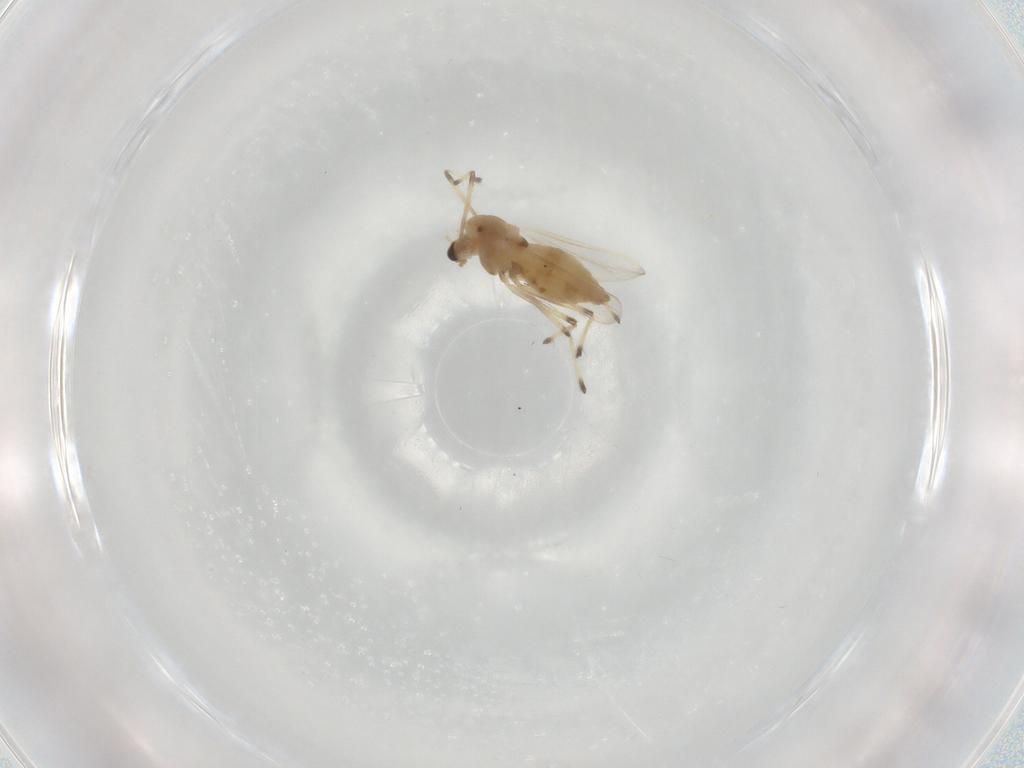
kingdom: Animalia
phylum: Arthropoda
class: Insecta
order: Diptera
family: Chironomidae
